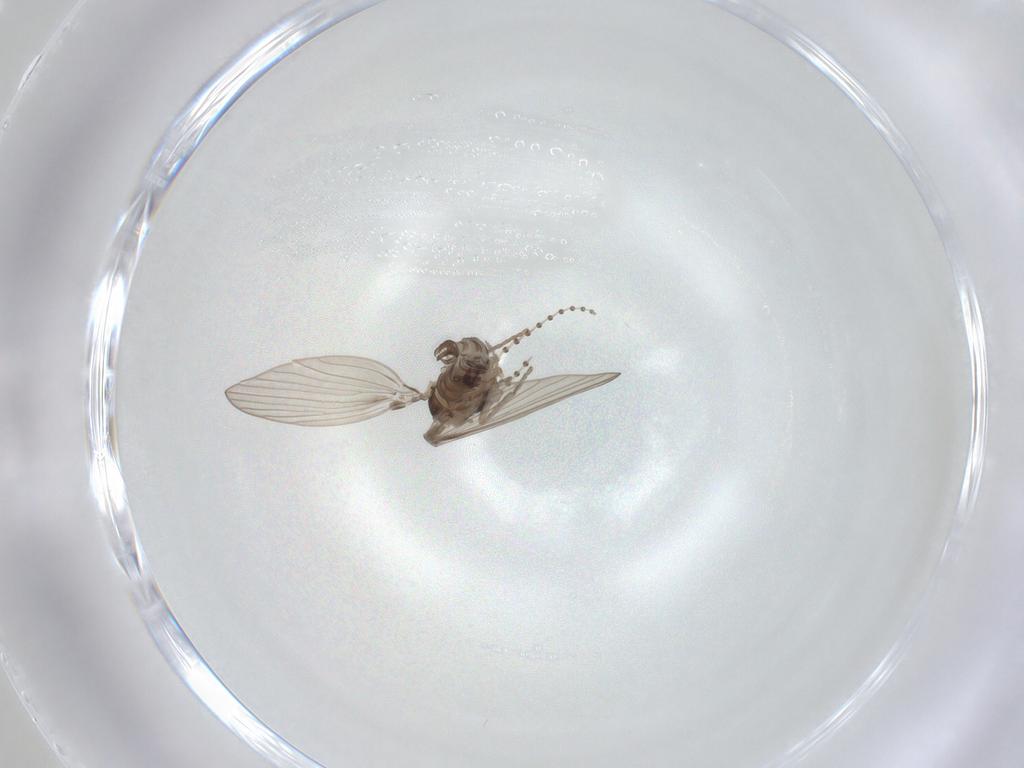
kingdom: Animalia
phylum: Arthropoda
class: Insecta
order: Diptera
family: Psychodidae
